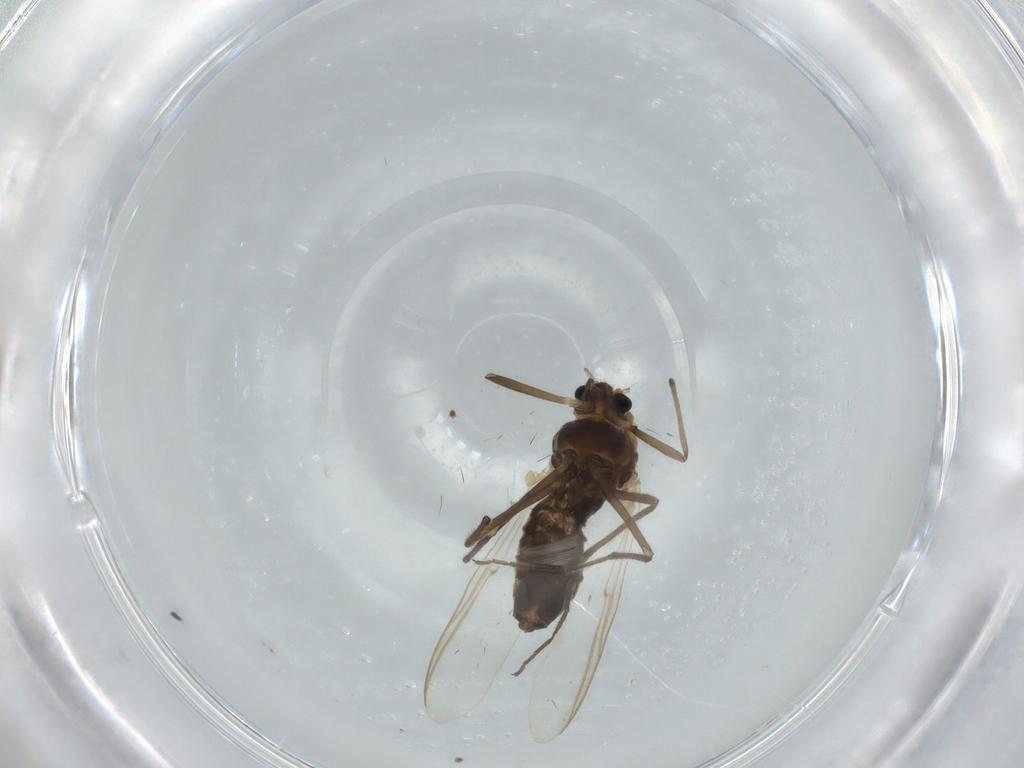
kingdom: Animalia
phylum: Arthropoda
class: Insecta
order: Diptera
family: Chironomidae
